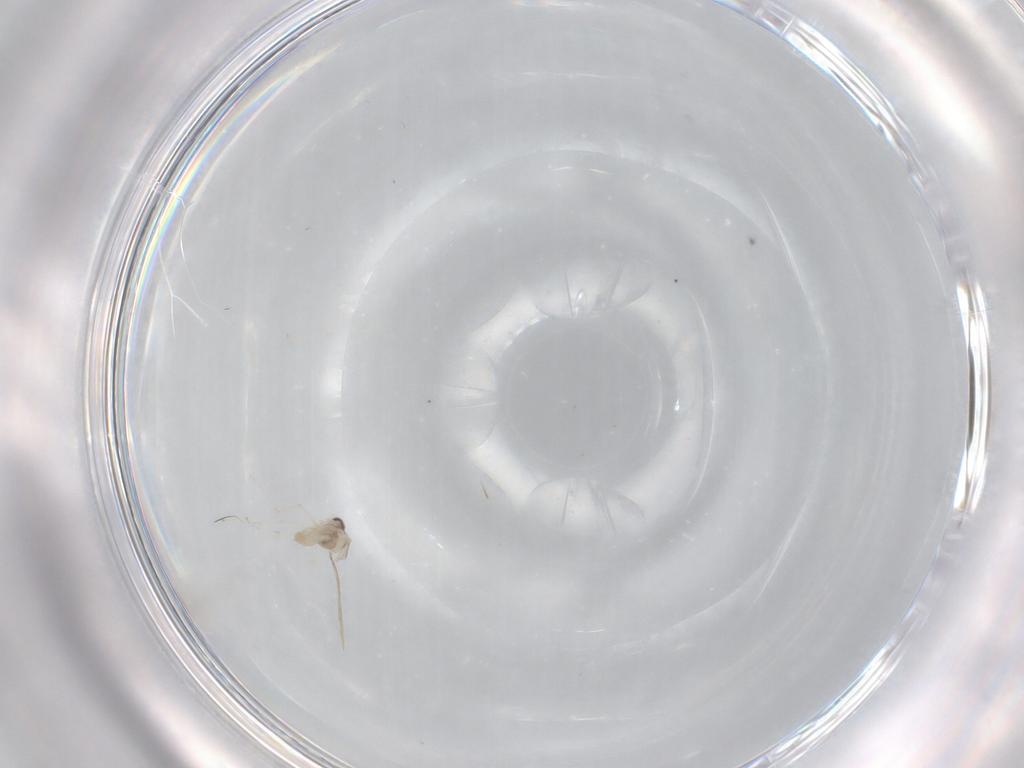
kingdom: Animalia
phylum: Arthropoda
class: Insecta
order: Diptera
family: Cecidomyiidae
